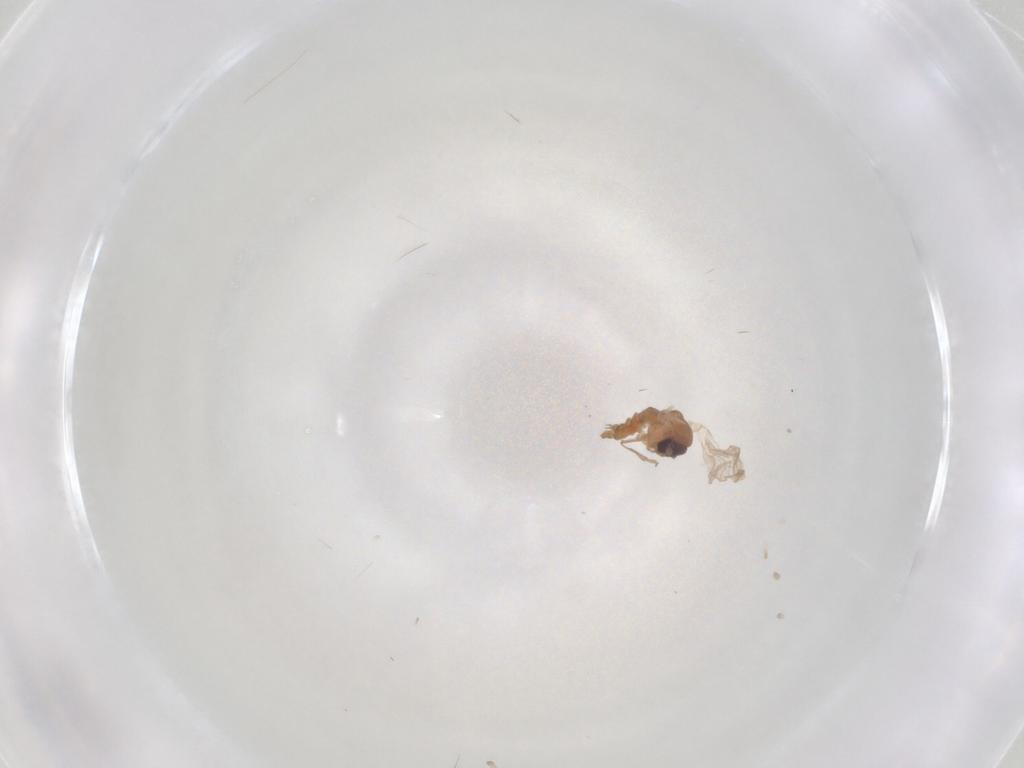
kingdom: Animalia
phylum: Arthropoda
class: Insecta
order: Diptera
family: Psychodidae
